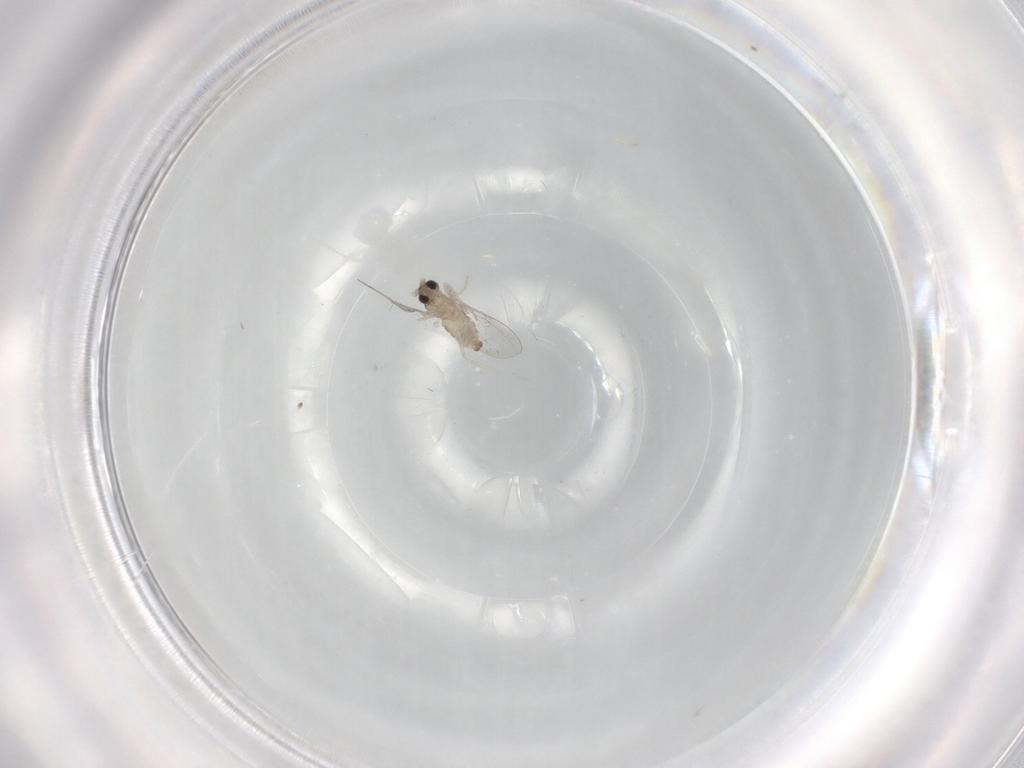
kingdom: Animalia
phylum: Arthropoda
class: Insecta
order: Diptera
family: Cecidomyiidae
